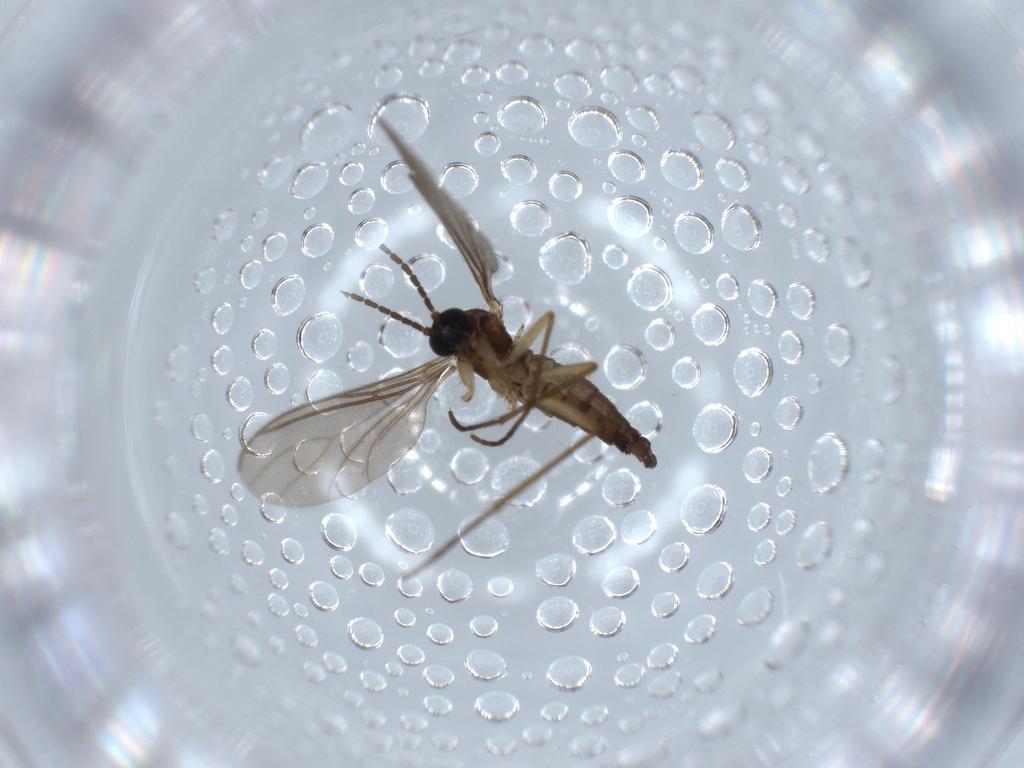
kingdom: Animalia
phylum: Arthropoda
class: Insecta
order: Diptera
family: Sciaridae
